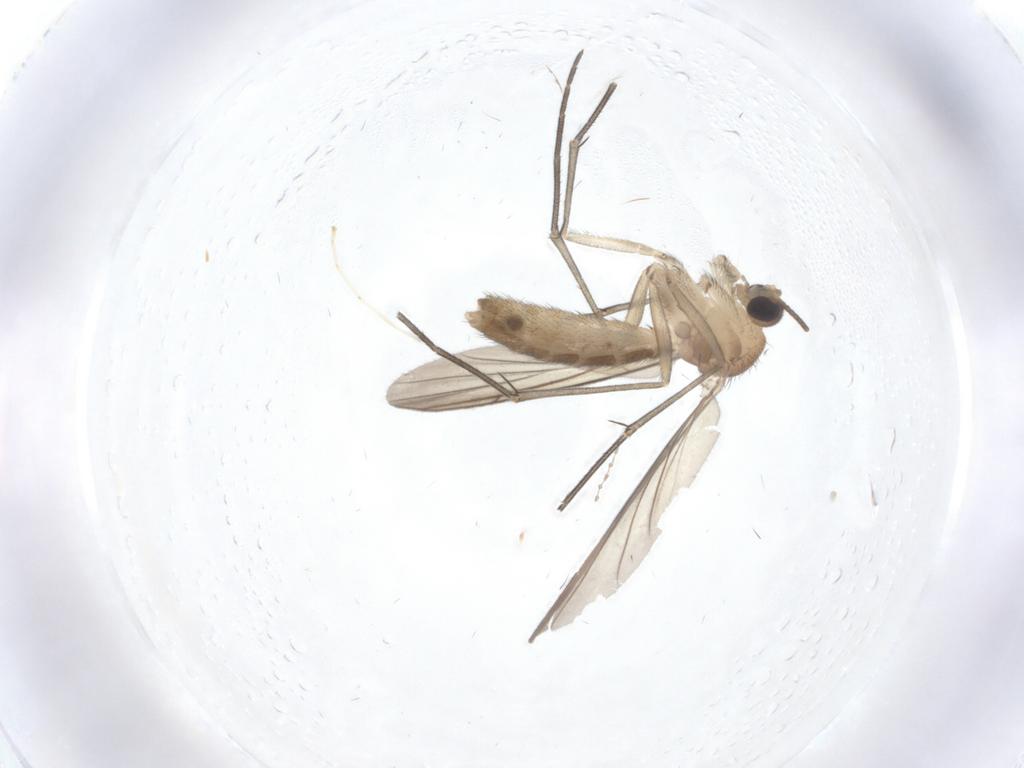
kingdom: Animalia
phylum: Arthropoda
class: Insecta
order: Diptera
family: Cecidomyiidae
